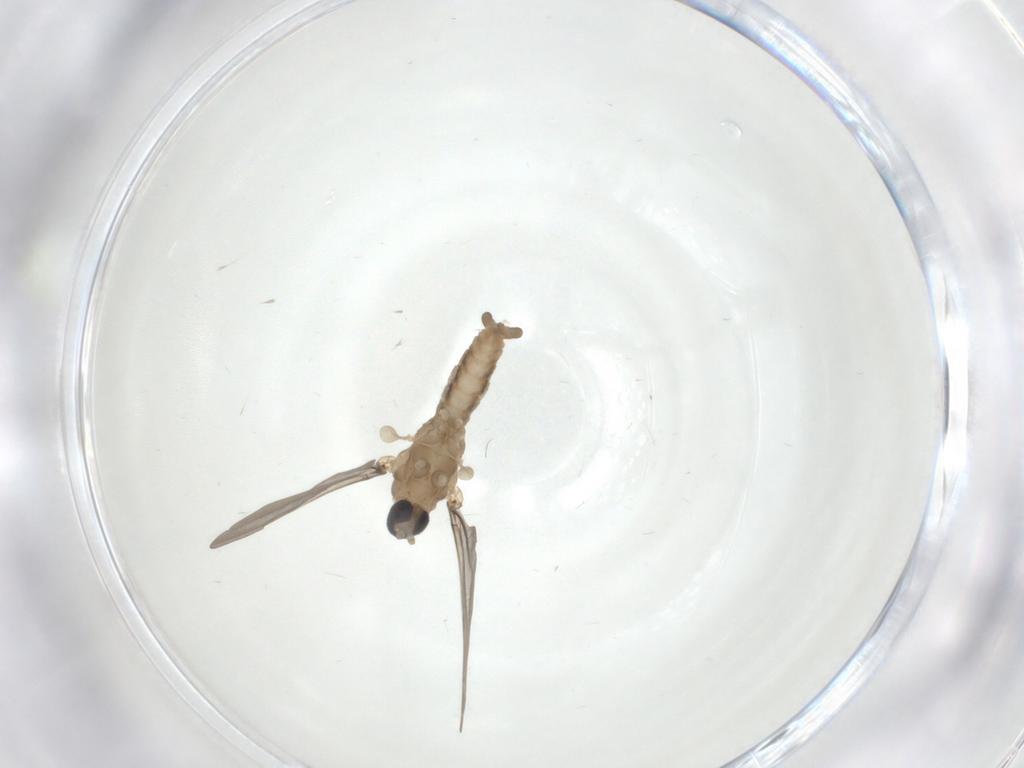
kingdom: Animalia
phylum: Arthropoda
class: Insecta
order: Diptera
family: Cecidomyiidae
